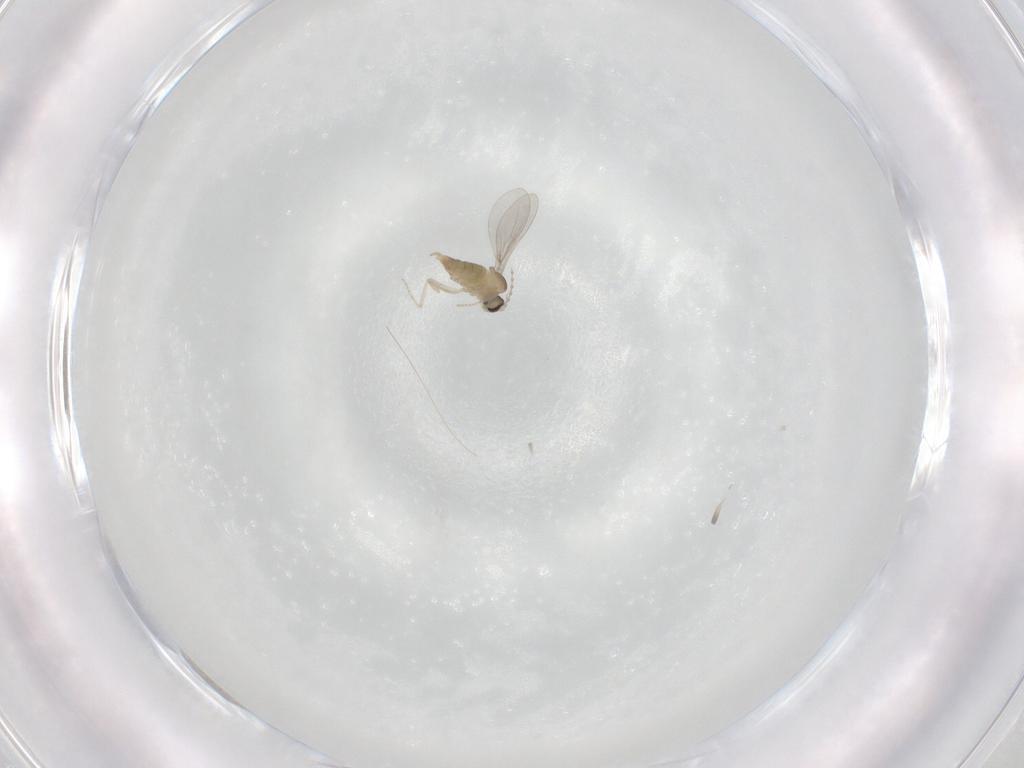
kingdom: Animalia
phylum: Arthropoda
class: Insecta
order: Diptera
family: Cecidomyiidae
